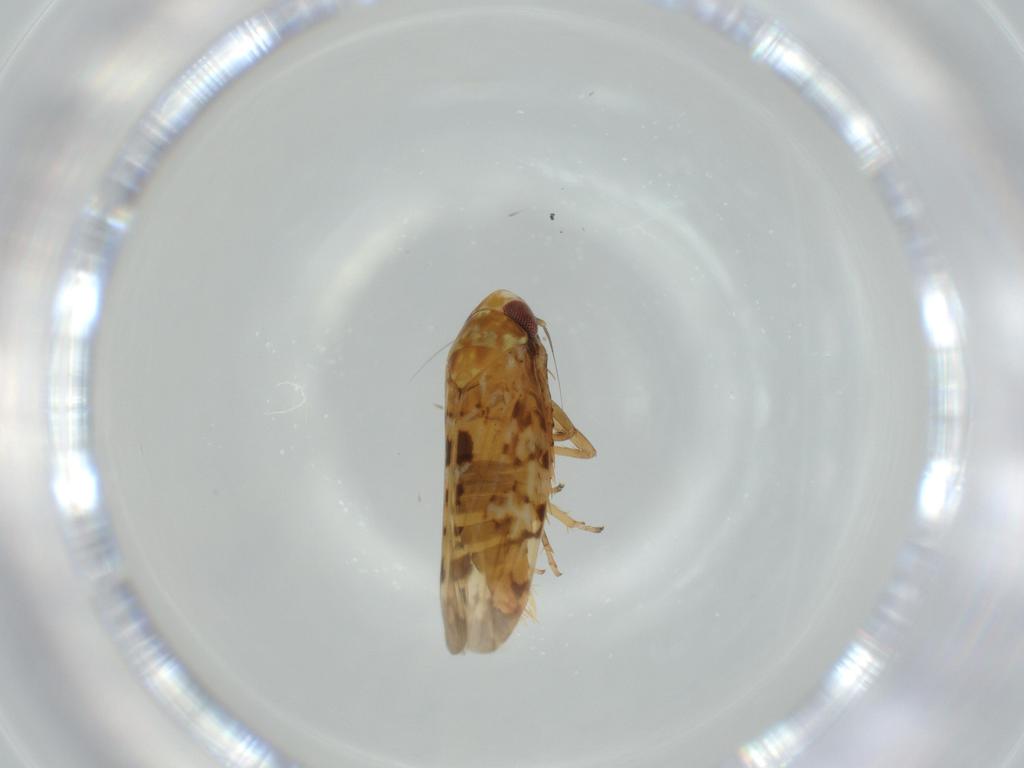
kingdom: Animalia
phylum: Arthropoda
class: Insecta
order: Hemiptera
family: Cicadellidae
